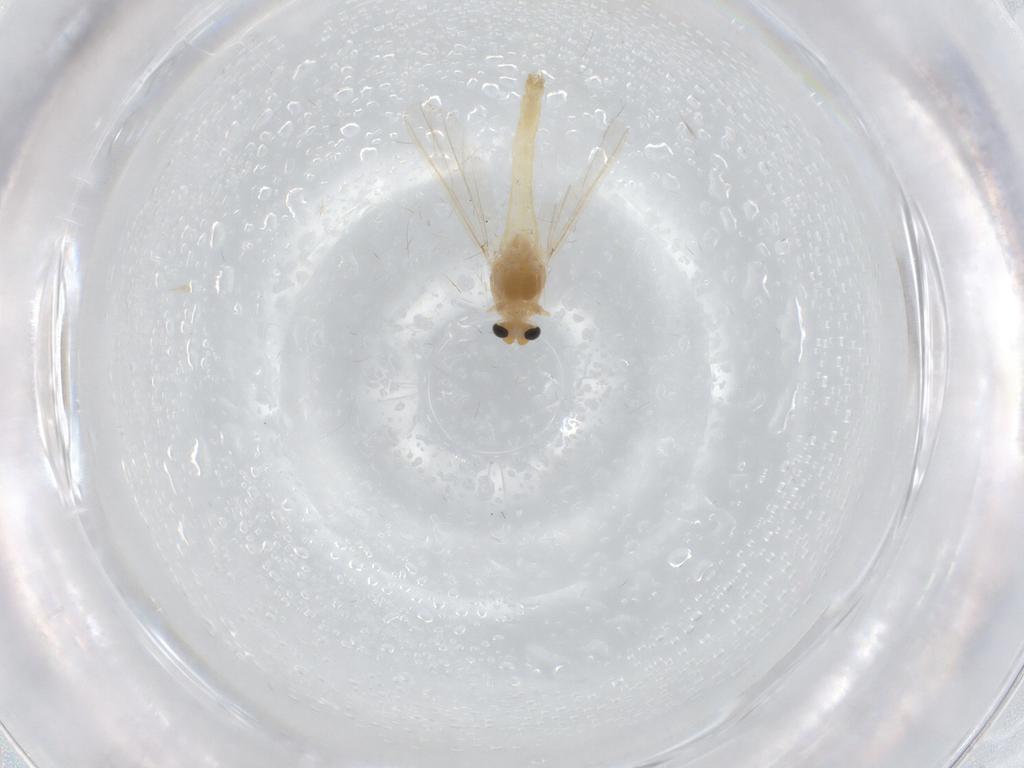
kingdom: Animalia
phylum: Arthropoda
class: Insecta
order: Diptera
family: Chironomidae
